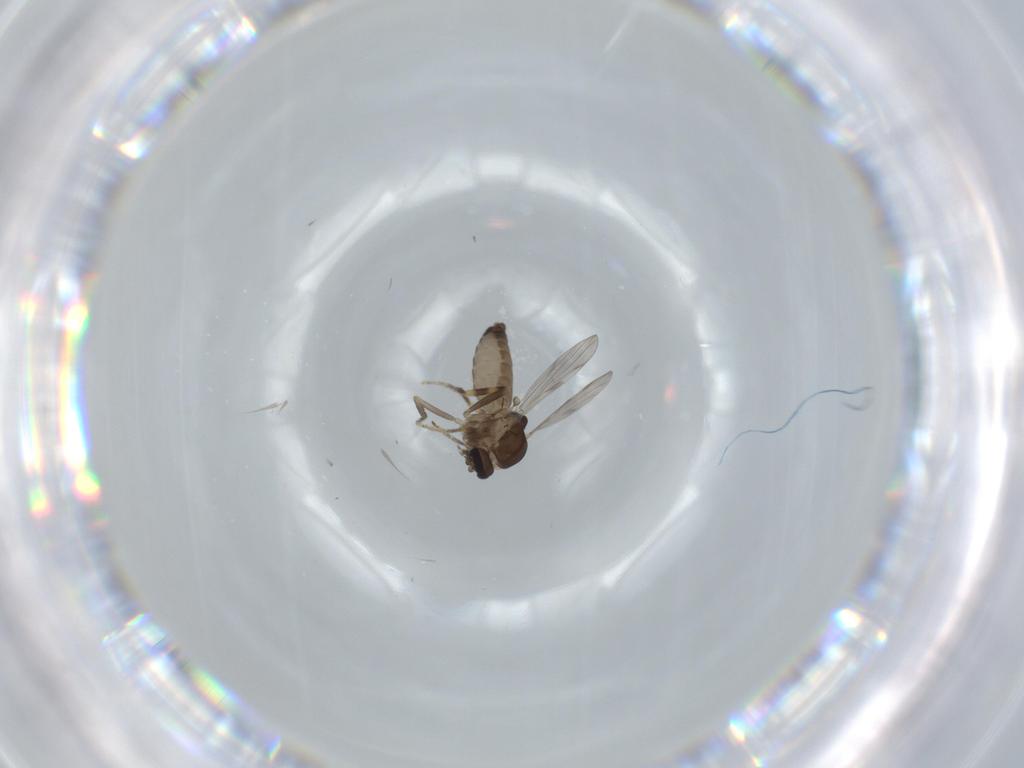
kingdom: Animalia
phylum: Arthropoda
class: Insecta
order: Diptera
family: Ceratopogonidae
